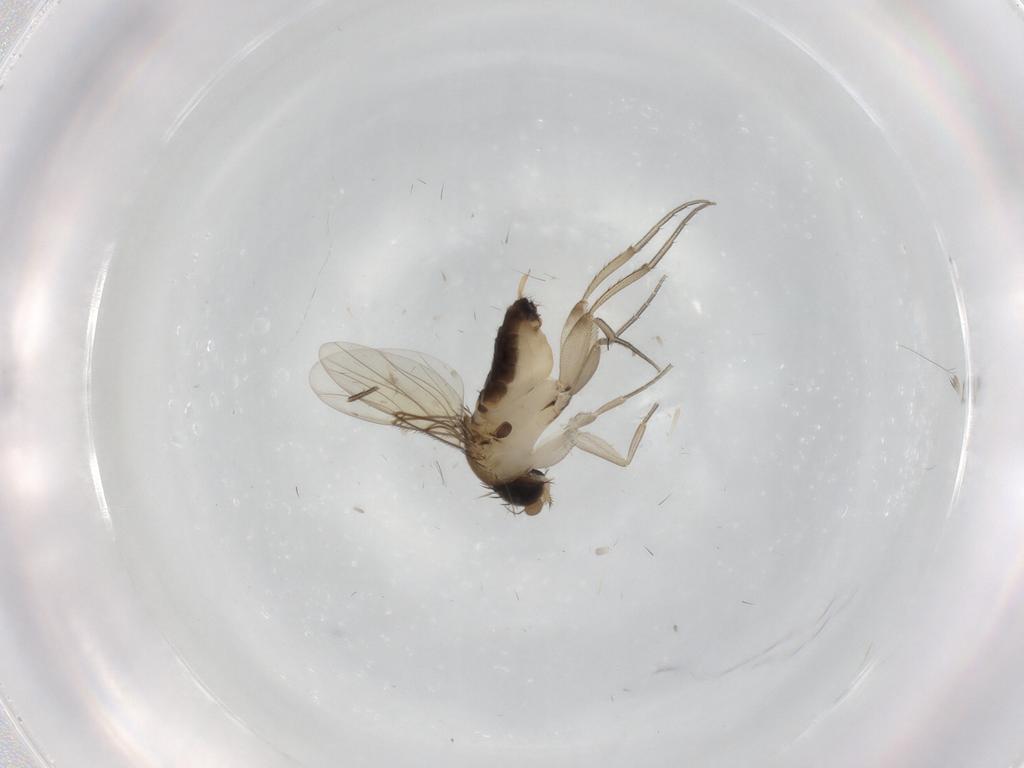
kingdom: Animalia
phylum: Arthropoda
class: Insecta
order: Diptera
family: Phoridae
